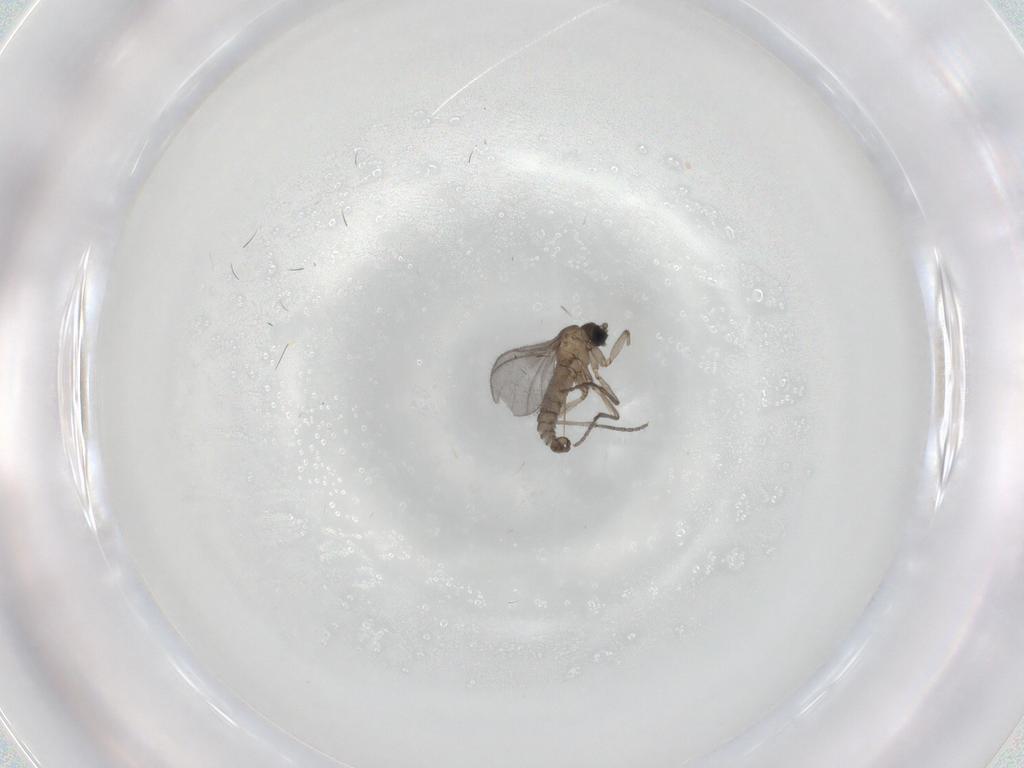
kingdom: Animalia
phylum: Arthropoda
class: Insecta
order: Diptera
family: Sciaridae
